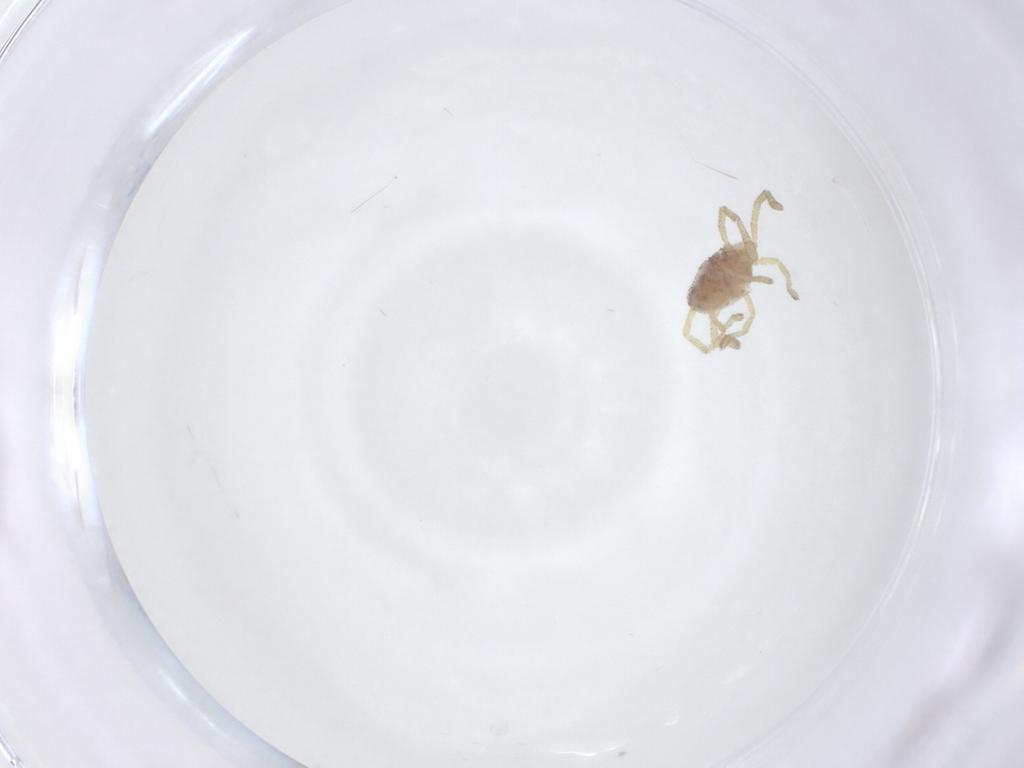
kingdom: Animalia
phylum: Arthropoda
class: Arachnida
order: Trombidiformes
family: Smarididae
